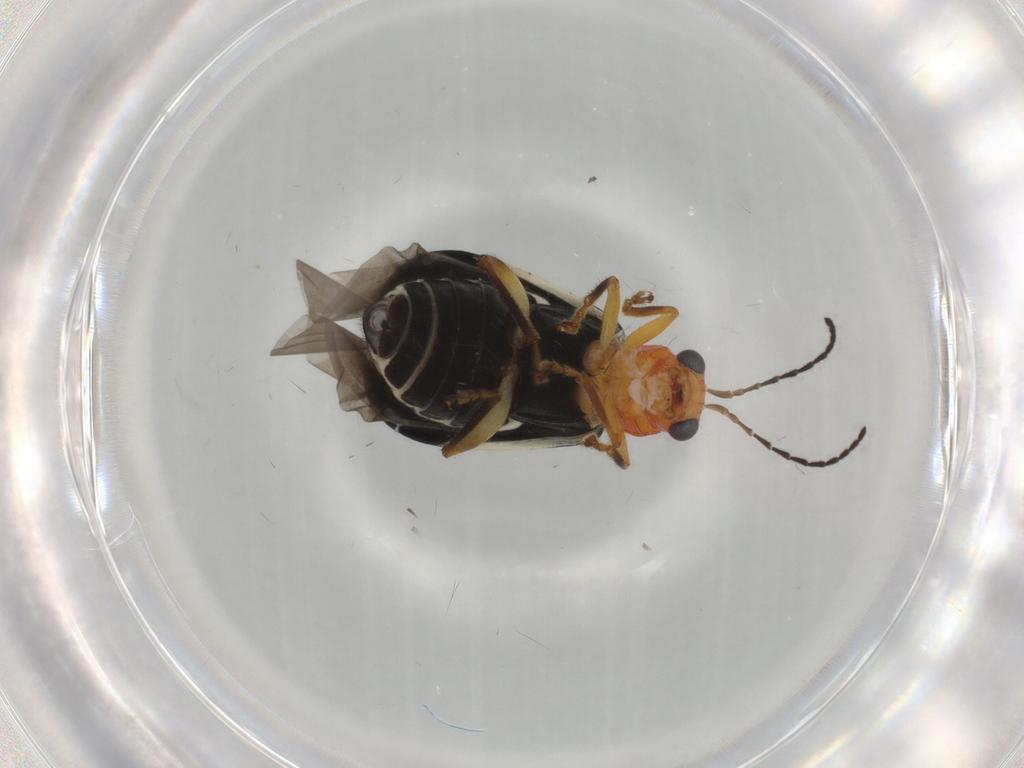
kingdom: Animalia
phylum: Arthropoda
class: Insecta
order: Coleoptera
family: Chrysomelidae
